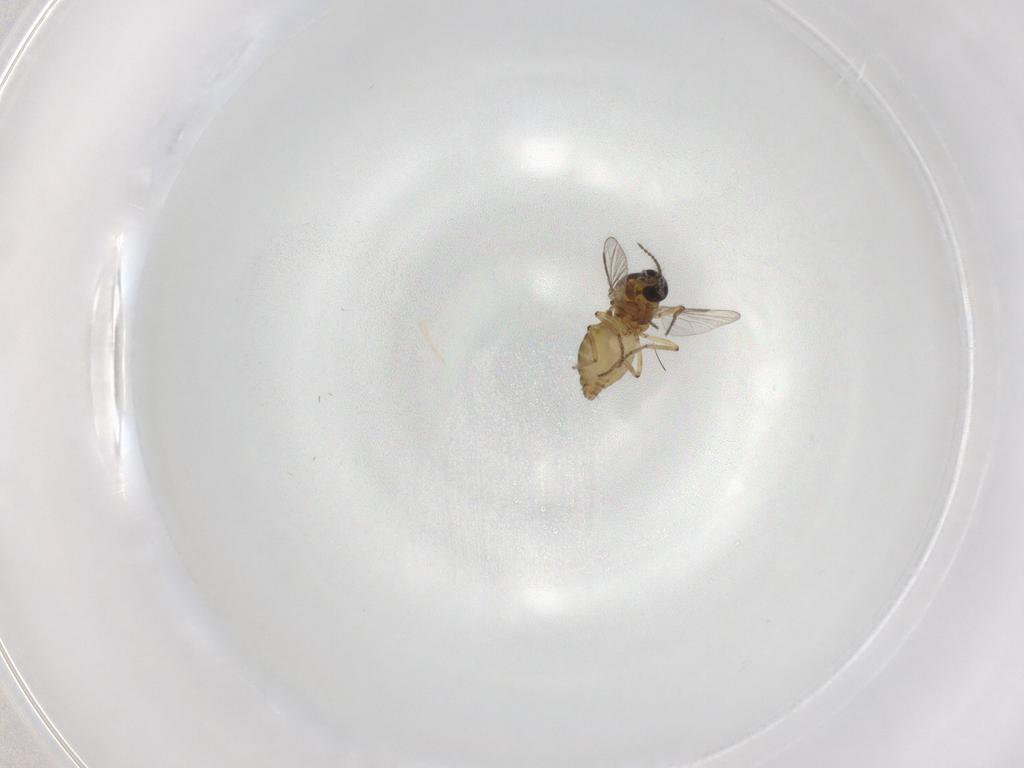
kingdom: Animalia
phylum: Arthropoda
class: Insecta
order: Diptera
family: Ceratopogonidae
